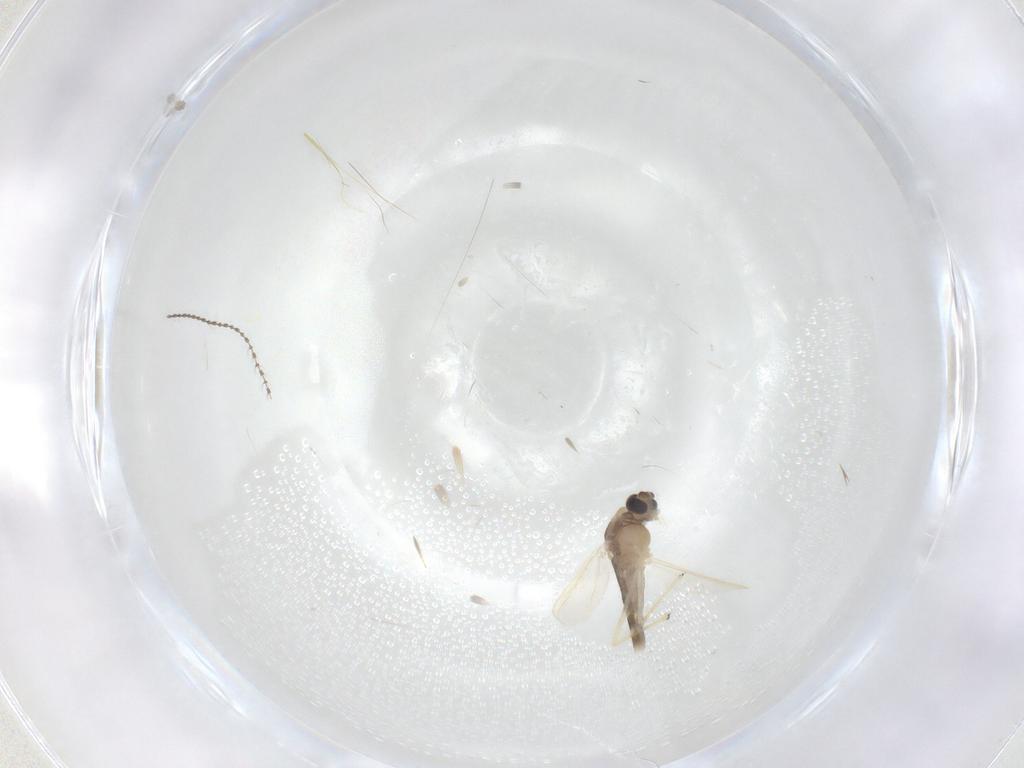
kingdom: Animalia
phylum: Arthropoda
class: Insecta
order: Diptera
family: Chironomidae
